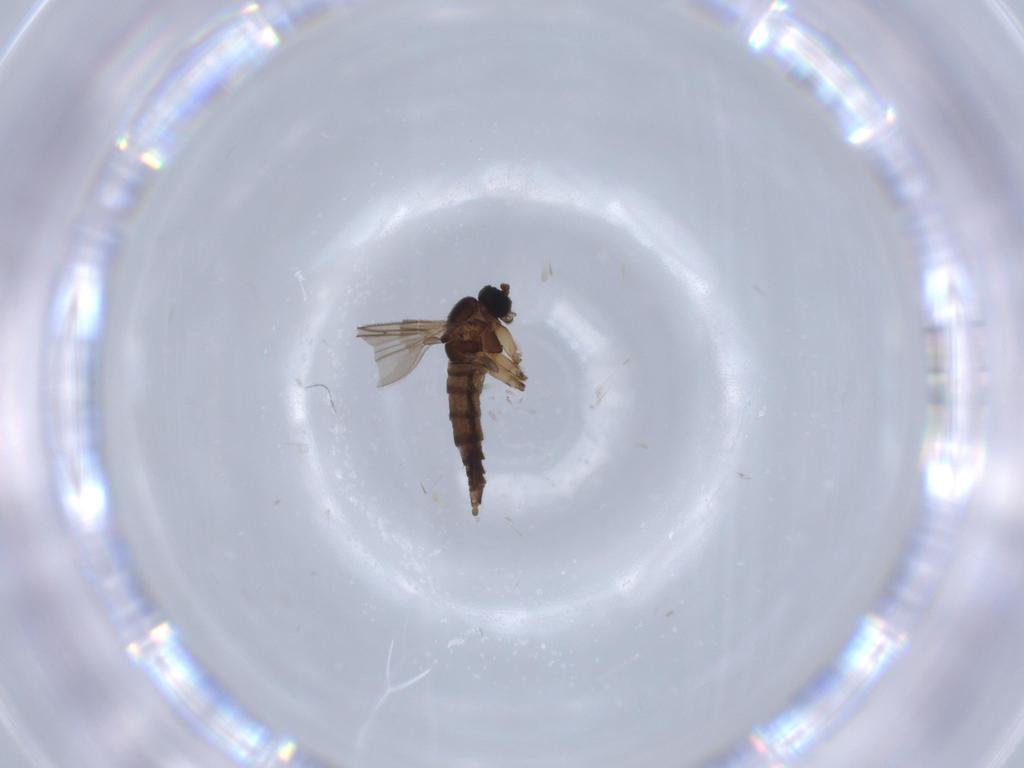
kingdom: Animalia
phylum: Arthropoda
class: Insecta
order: Diptera
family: Sciaridae
